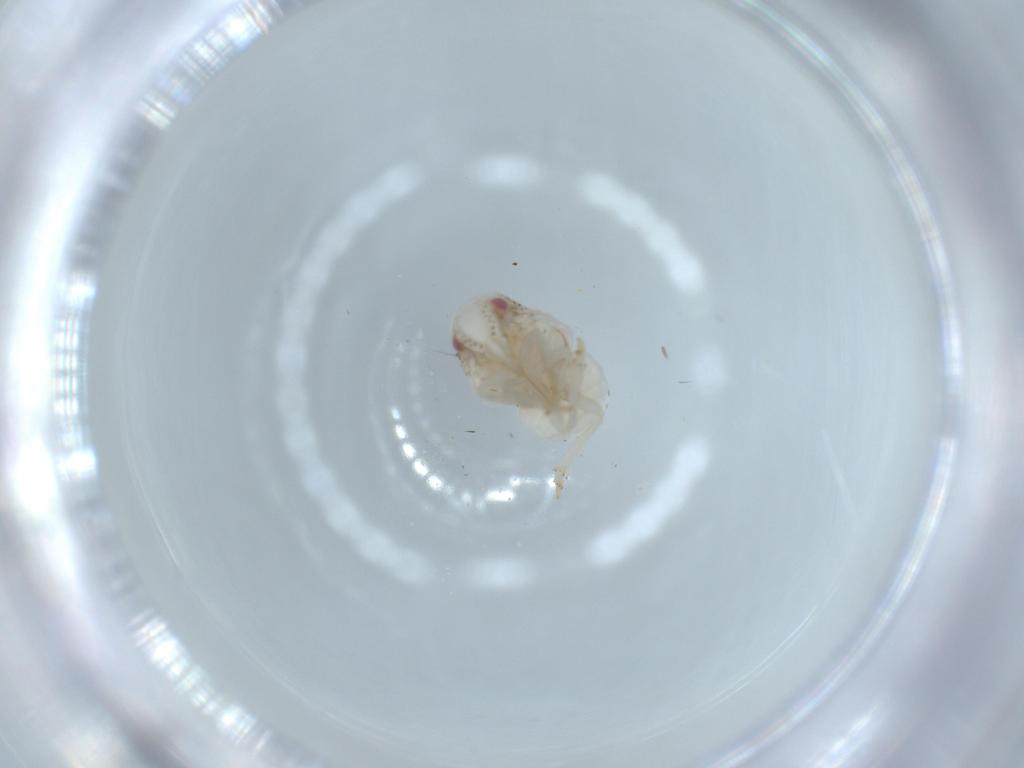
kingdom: Animalia
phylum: Arthropoda
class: Insecta
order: Hemiptera
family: Acanaloniidae
